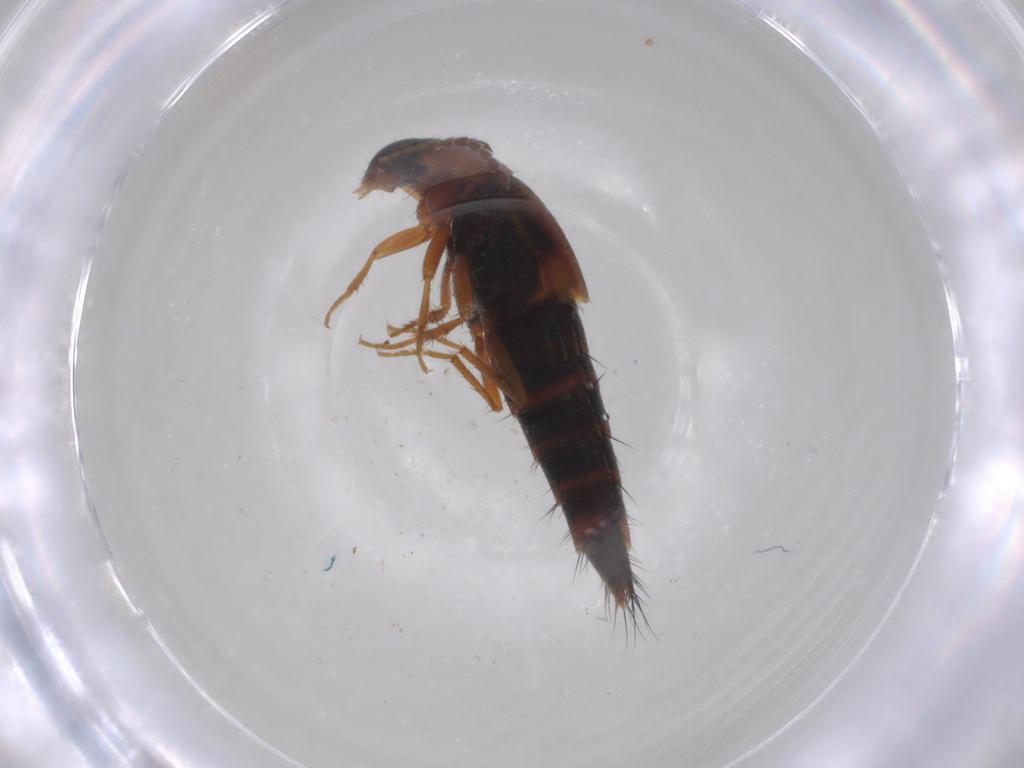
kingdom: Animalia
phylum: Arthropoda
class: Insecta
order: Coleoptera
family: Staphylinidae
